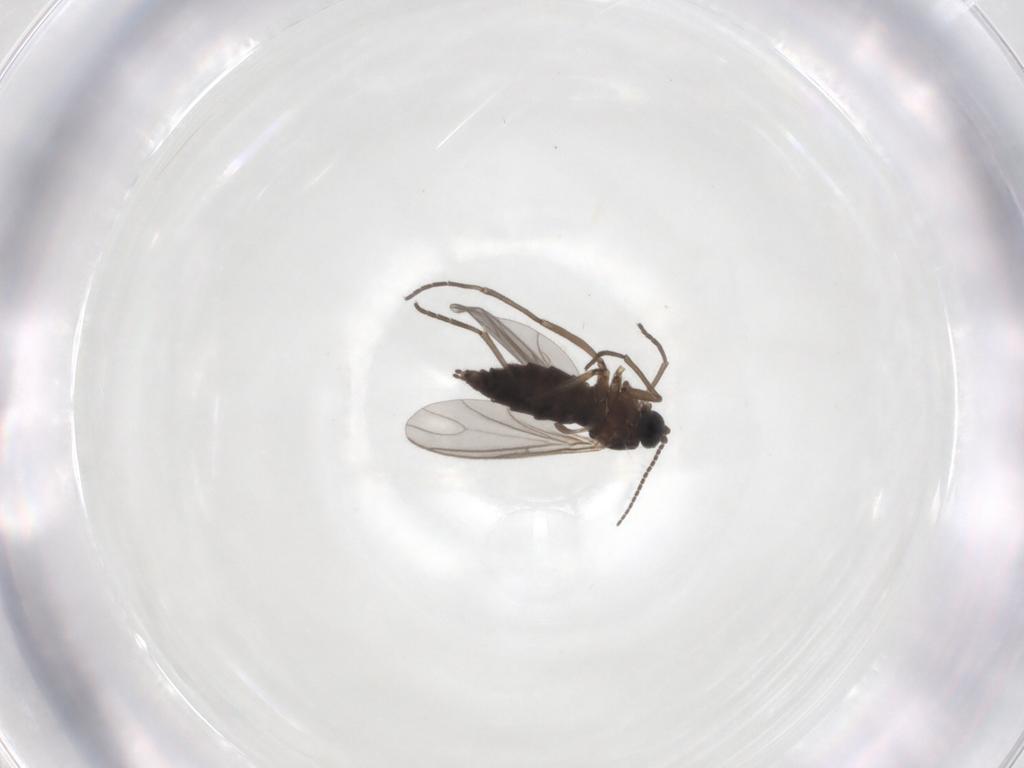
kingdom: Animalia
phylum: Arthropoda
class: Insecta
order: Diptera
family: Sciaridae
